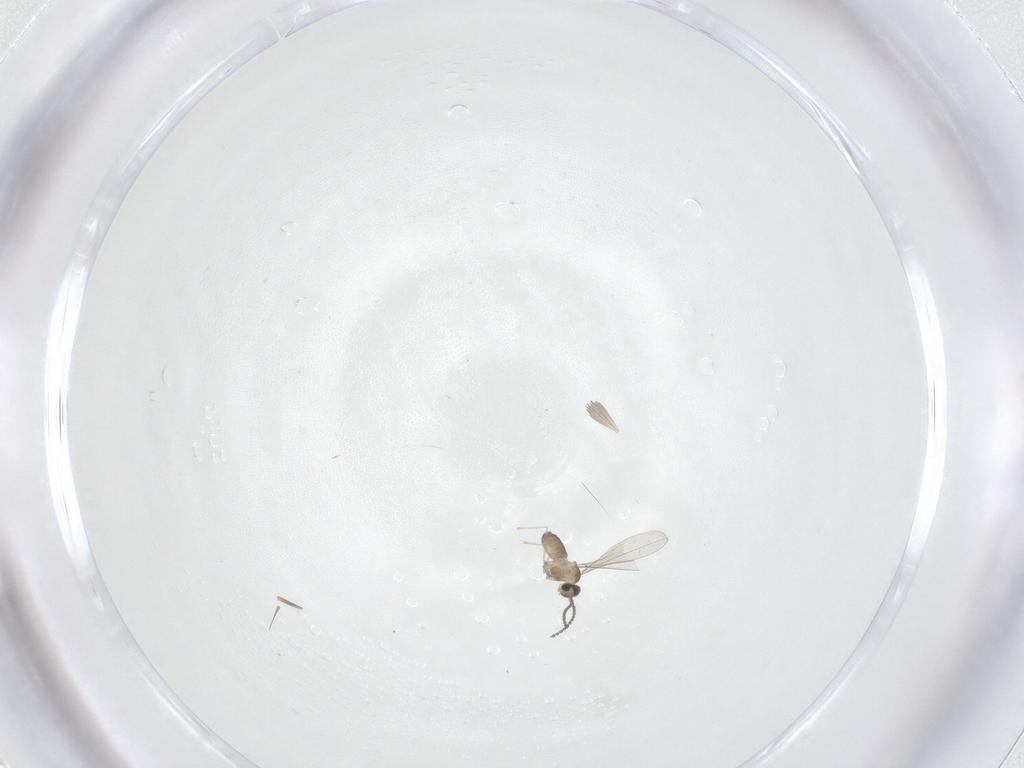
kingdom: Animalia
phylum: Arthropoda
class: Insecta
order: Diptera
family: Cecidomyiidae
